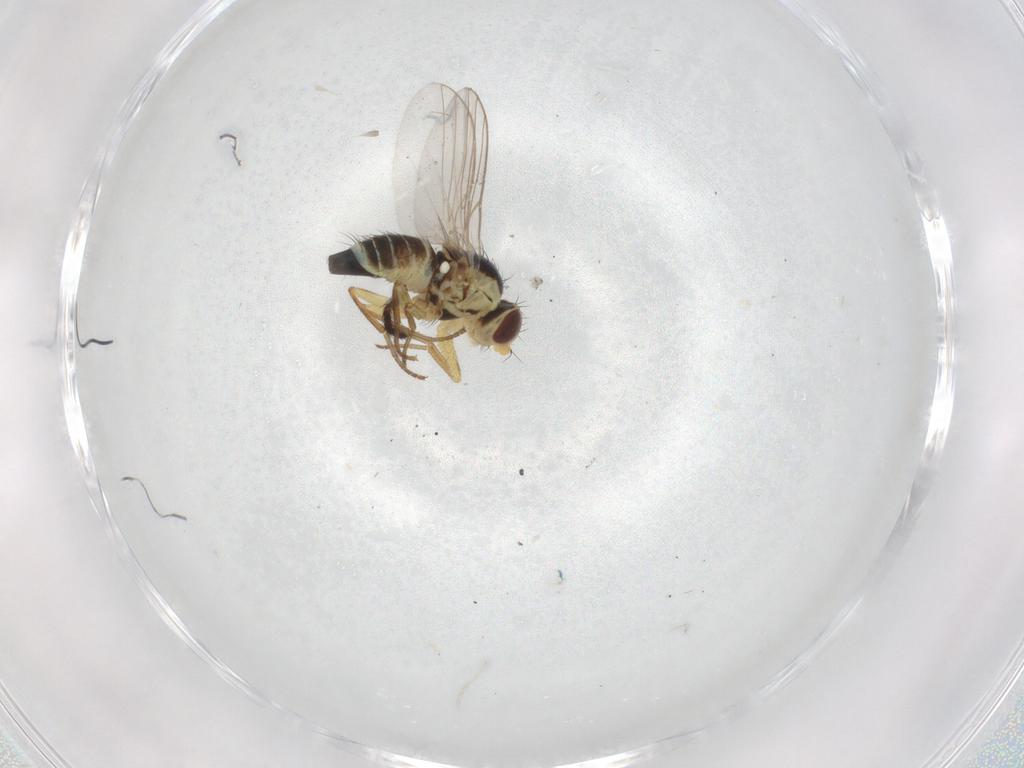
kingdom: Animalia
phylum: Arthropoda
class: Insecta
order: Diptera
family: Agromyzidae
